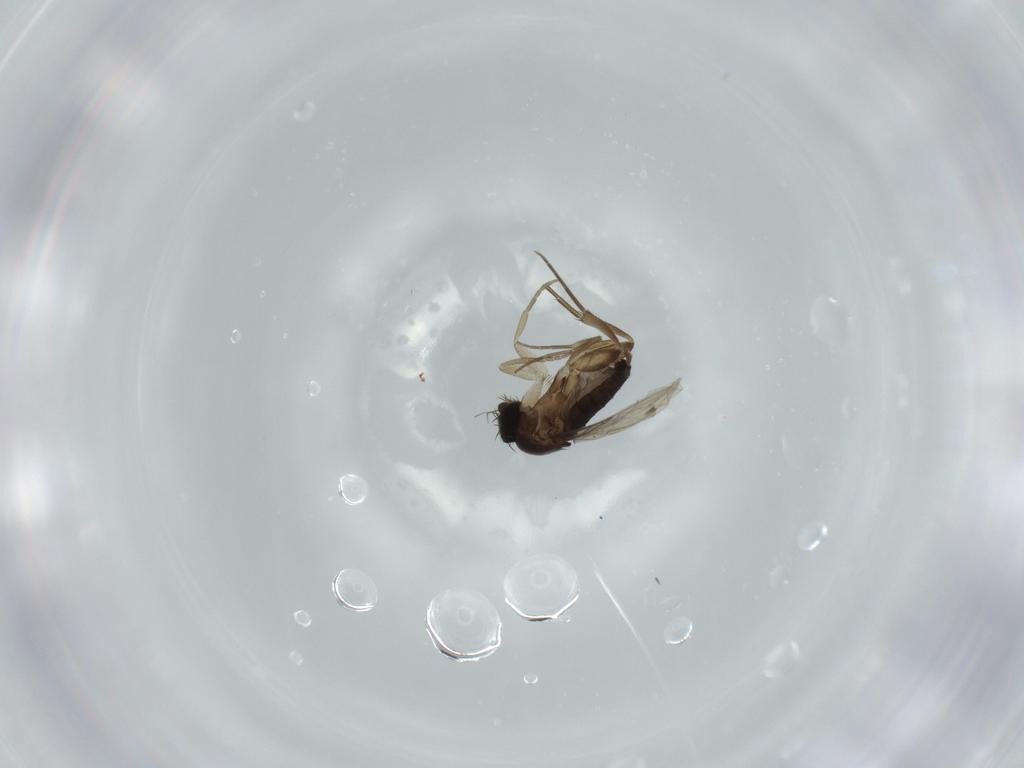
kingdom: Animalia
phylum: Arthropoda
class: Insecta
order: Diptera
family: Phoridae
